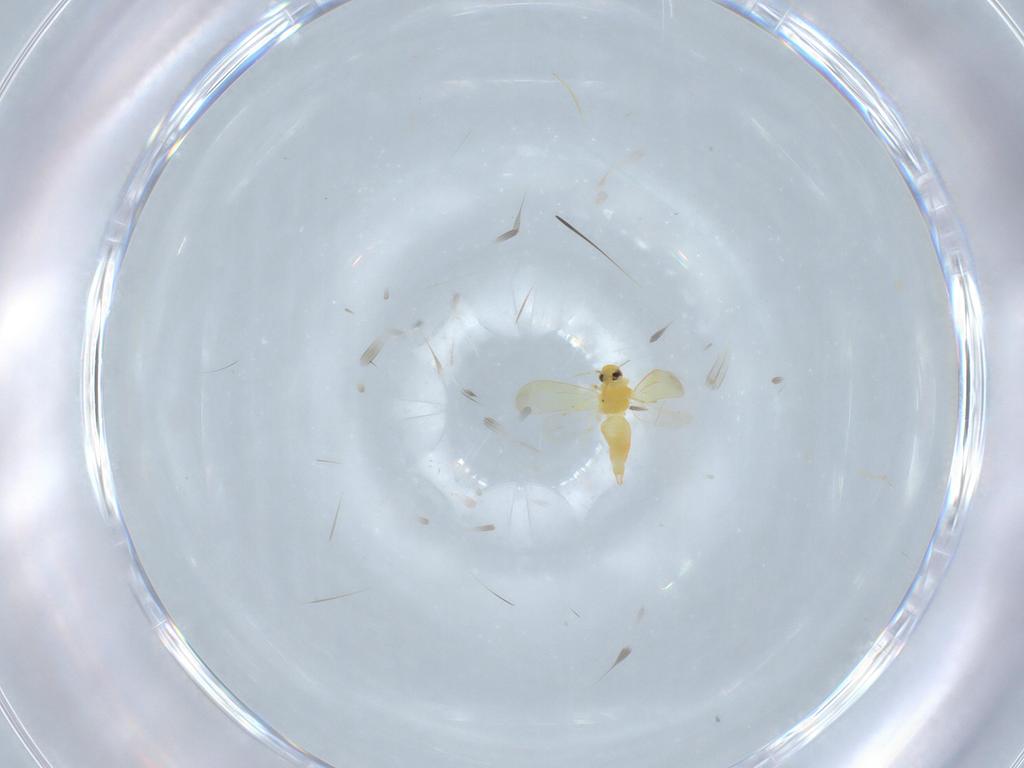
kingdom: Animalia
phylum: Arthropoda
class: Insecta
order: Hemiptera
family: Aleyrodidae
